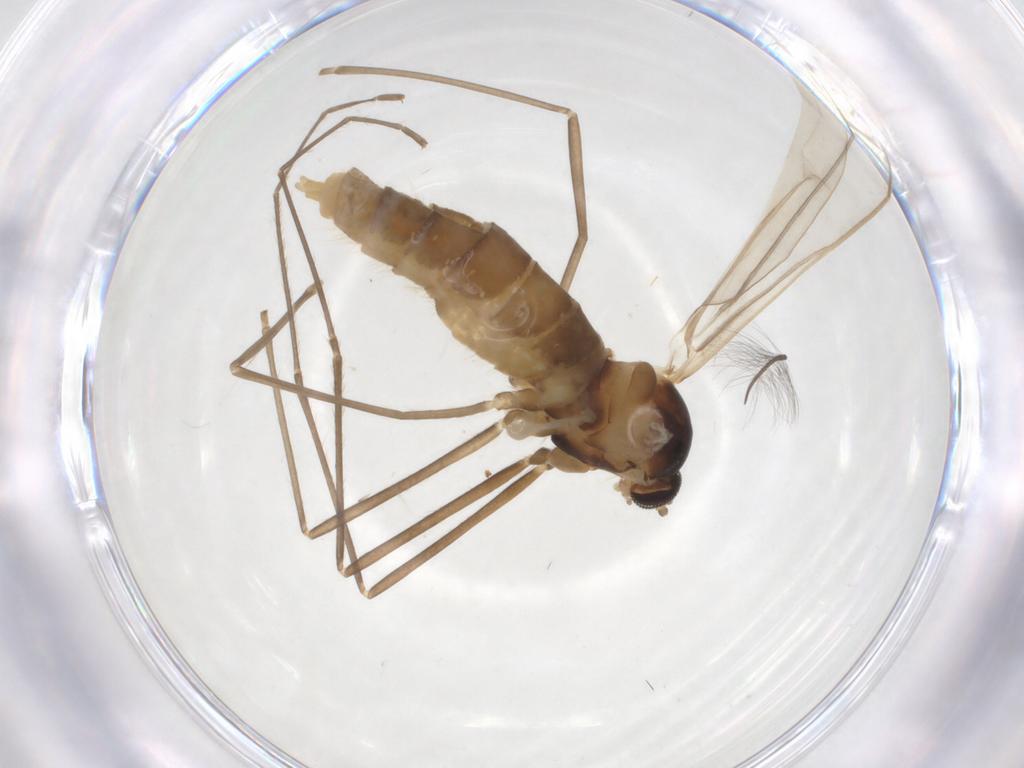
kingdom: Animalia
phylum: Arthropoda
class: Insecta
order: Diptera
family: Cecidomyiidae
